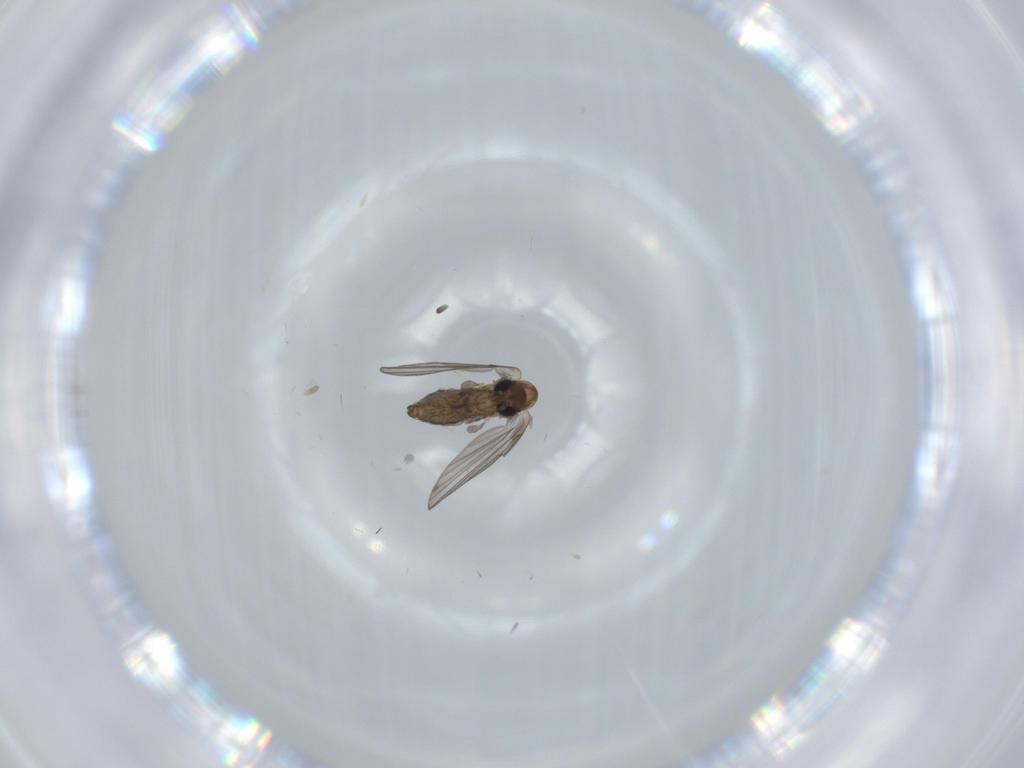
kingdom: Animalia
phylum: Arthropoda
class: Insecta
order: Diptera
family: Psychodidae
